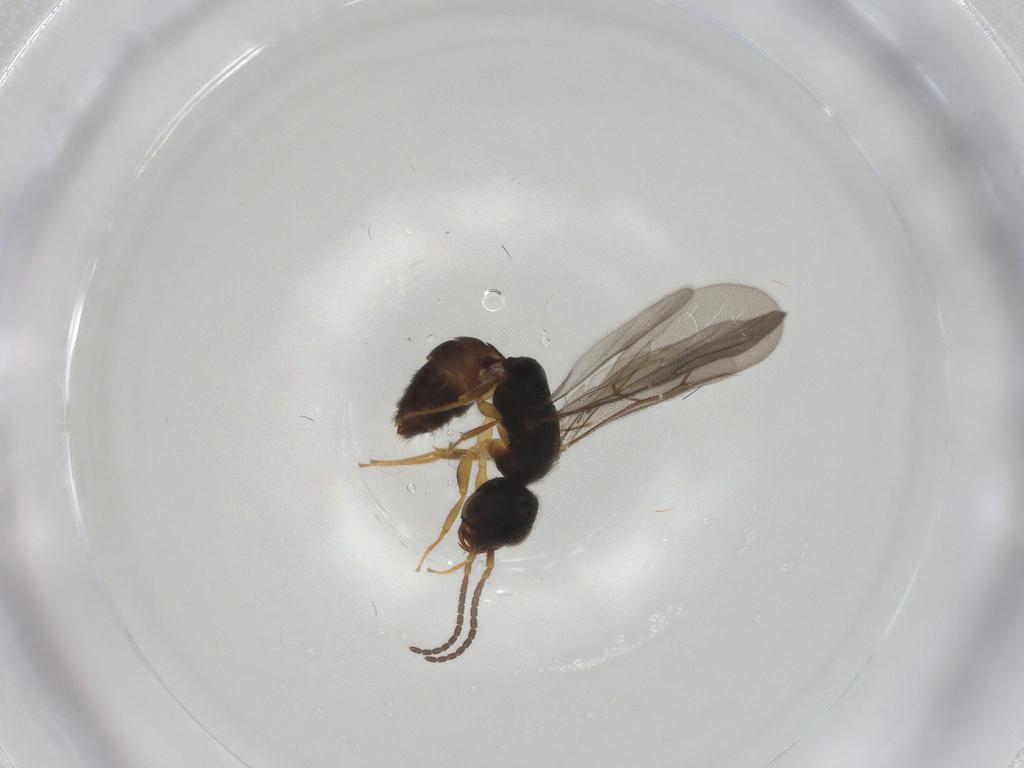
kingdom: Animalia
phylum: Arthropoda
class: Insecta
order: Hymenoptera
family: Bethylidae
